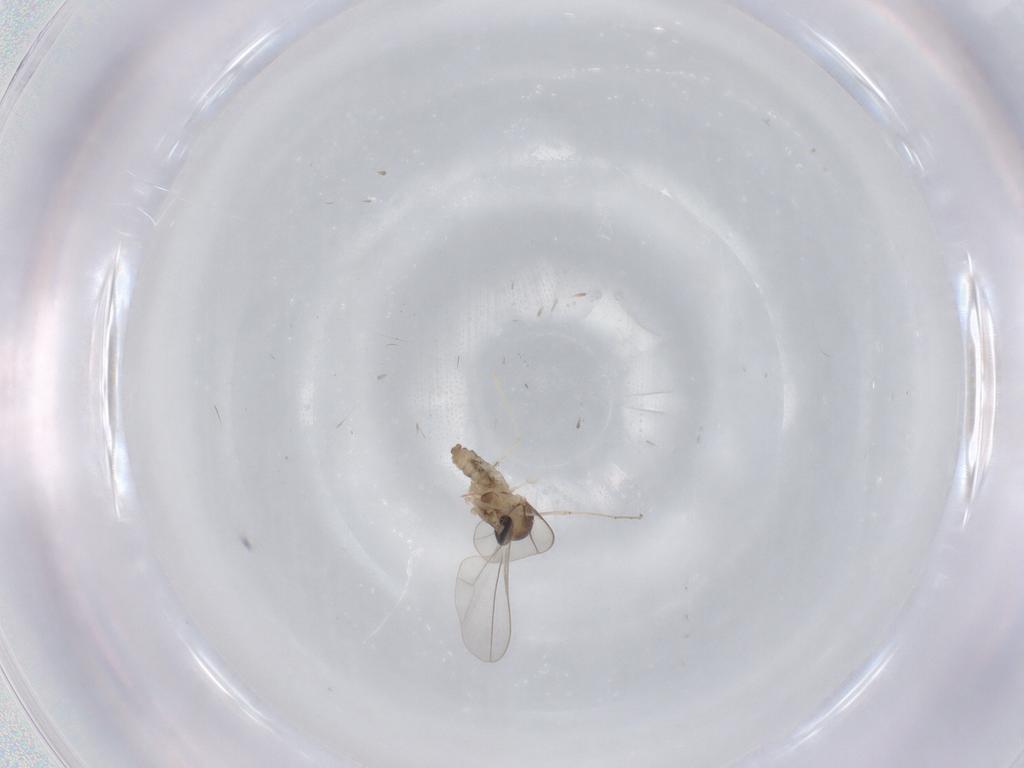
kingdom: Animalia
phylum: Arthropoda
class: Insecta
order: Diptera
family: Cecidomyiidae
